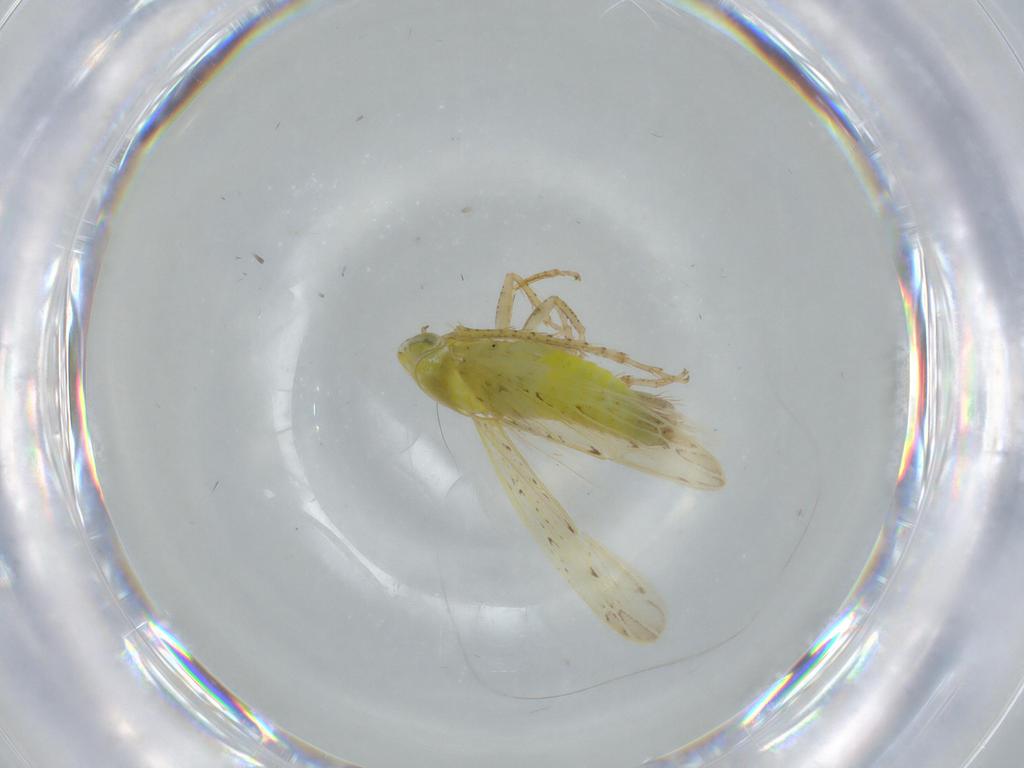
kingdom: Animalia
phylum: Arthropoda
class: Insecta
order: Hemiptera
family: Cicadellidae
